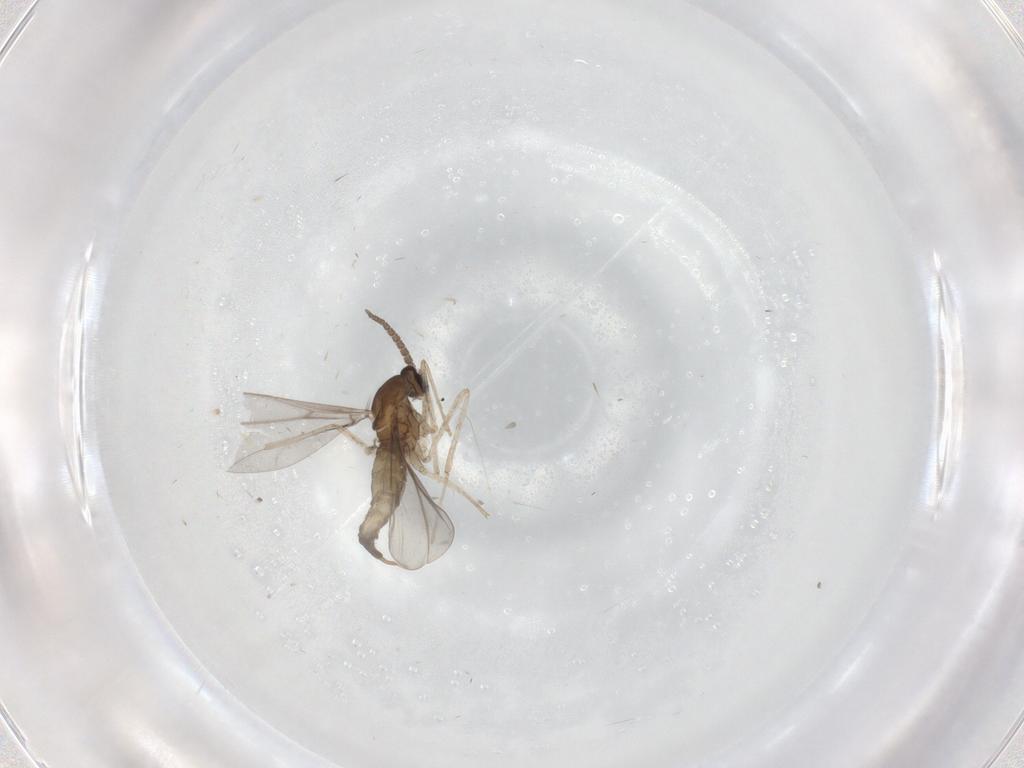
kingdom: Animalia
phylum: Arthropoda
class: Insecta
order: Diptera
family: Cecidomyiidae
